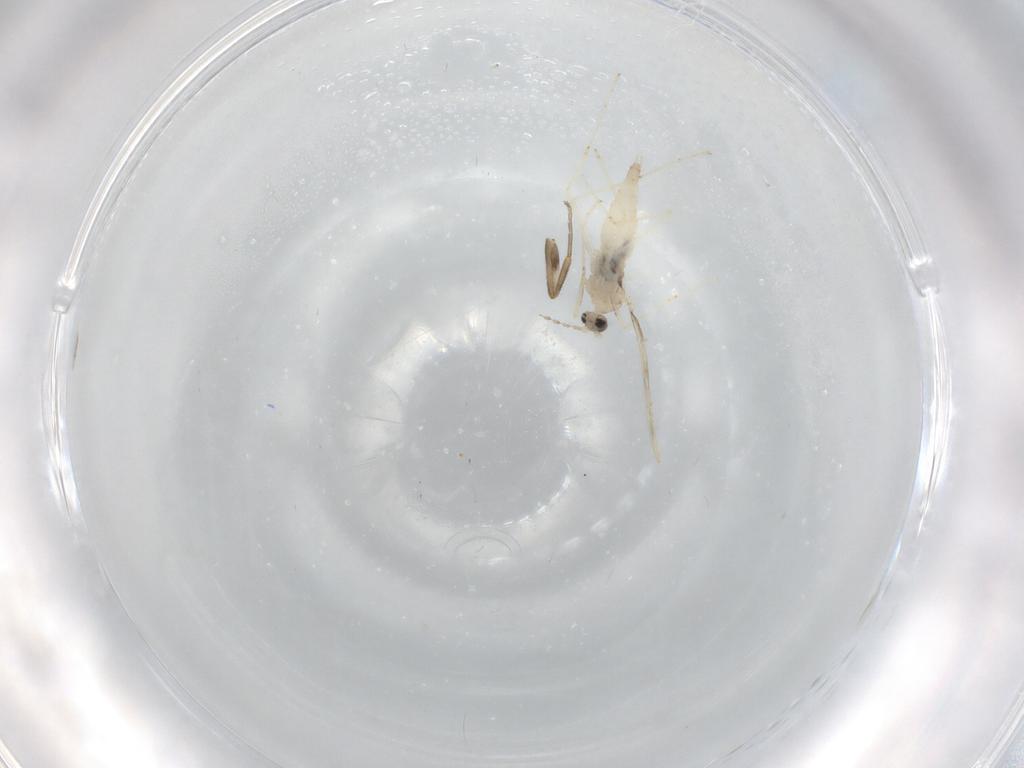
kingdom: Animalia
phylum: Arthropoda
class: Insecta
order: Diptera
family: Cecidomyiidae
